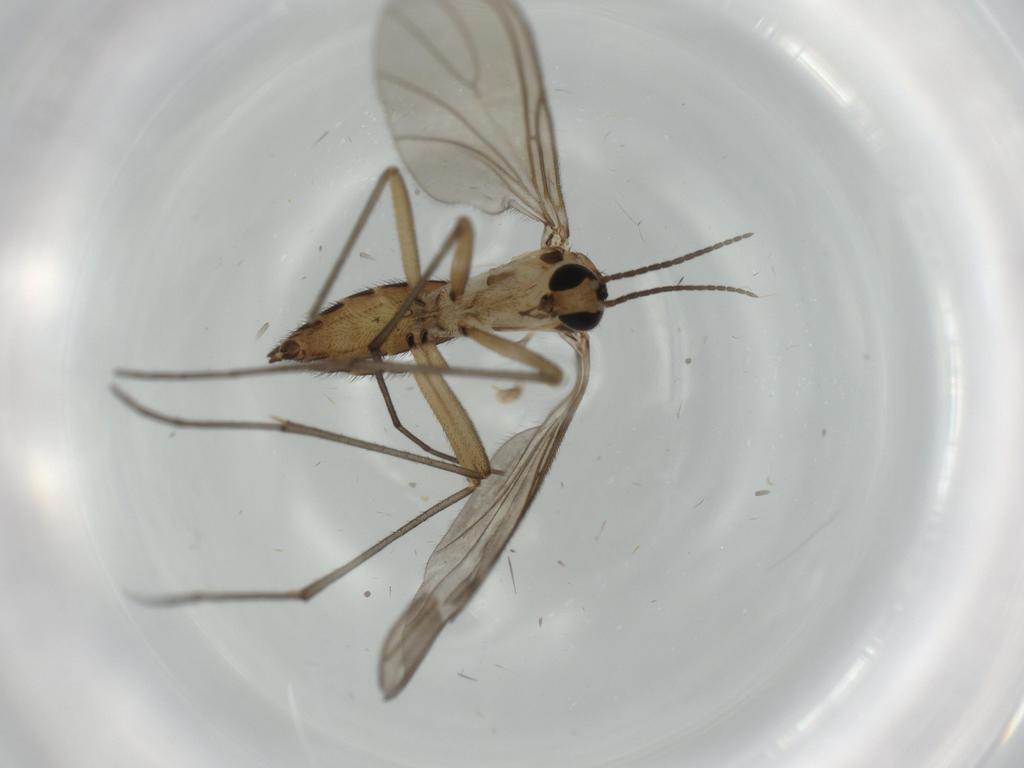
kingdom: Animalia
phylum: Arthropoda
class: Insecta
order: Diptera
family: Sciaridae
